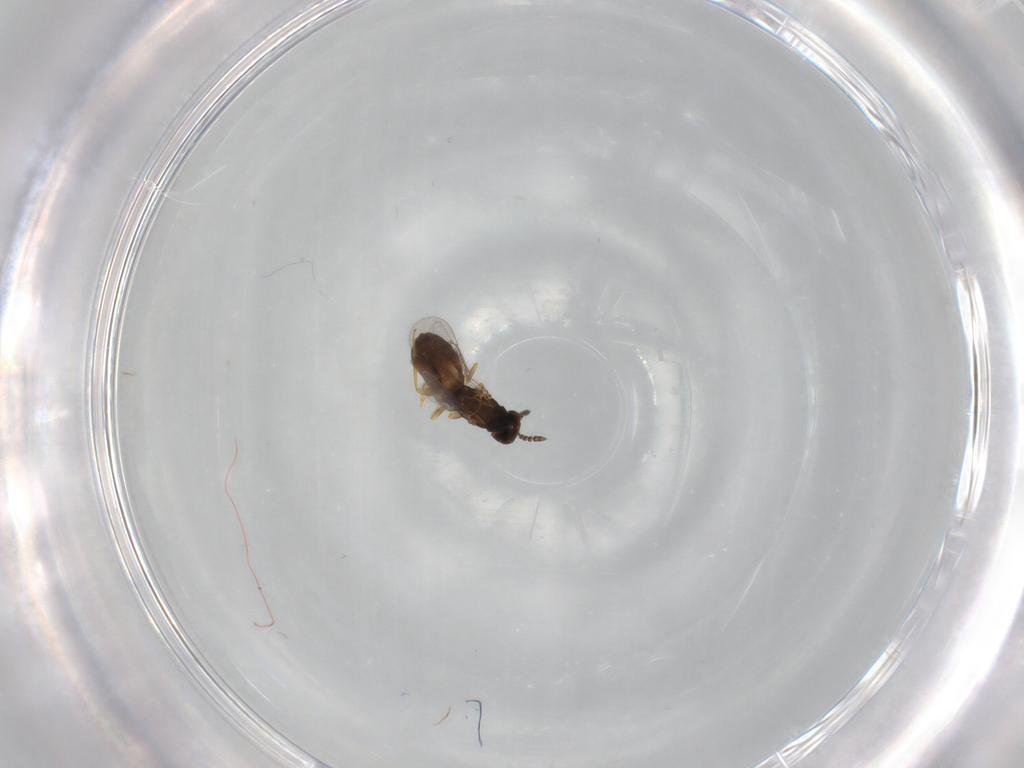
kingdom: Animalia
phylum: Arthropoda
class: Insecta
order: Hymenoptera
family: Eulophidae
